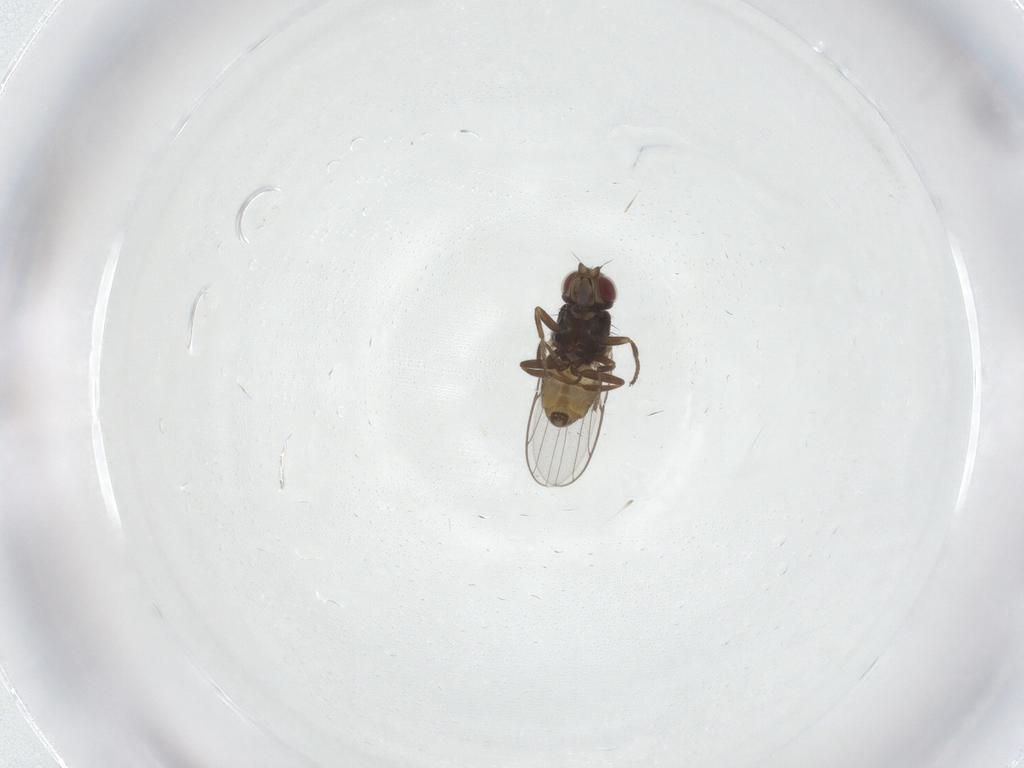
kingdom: Animalia
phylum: Arthropoda
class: Insecta
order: Diptera
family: Chloropidae
